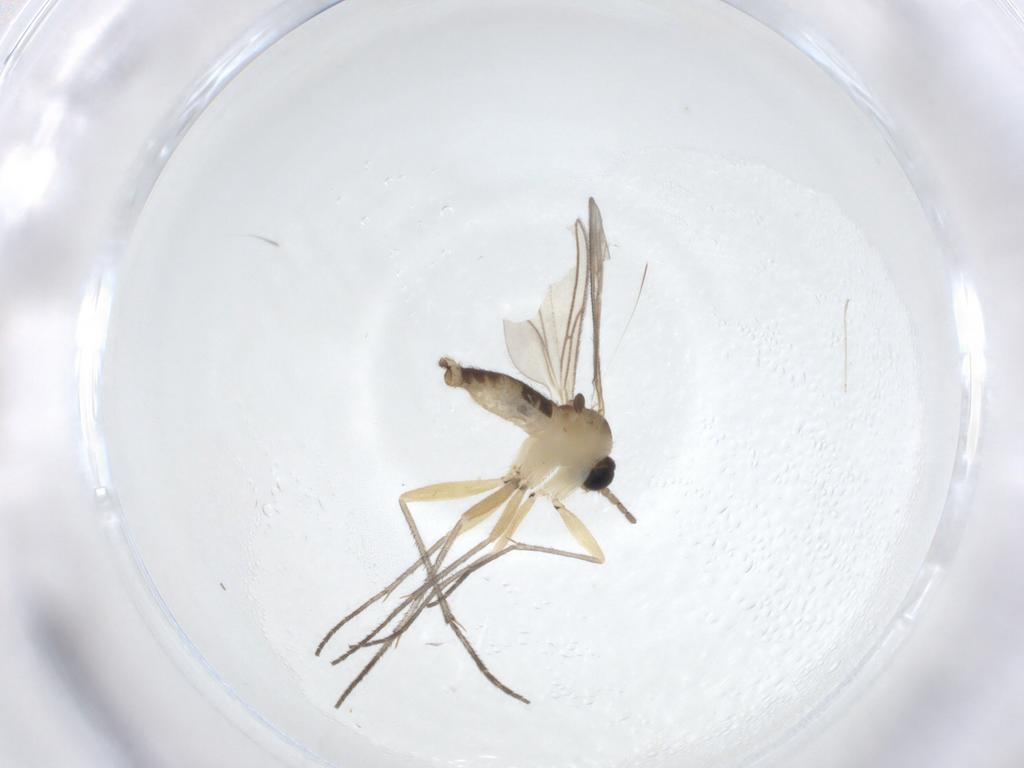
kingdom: Animalia
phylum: Arthropoda
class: Insecta
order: Diptera
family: Sciaridae
